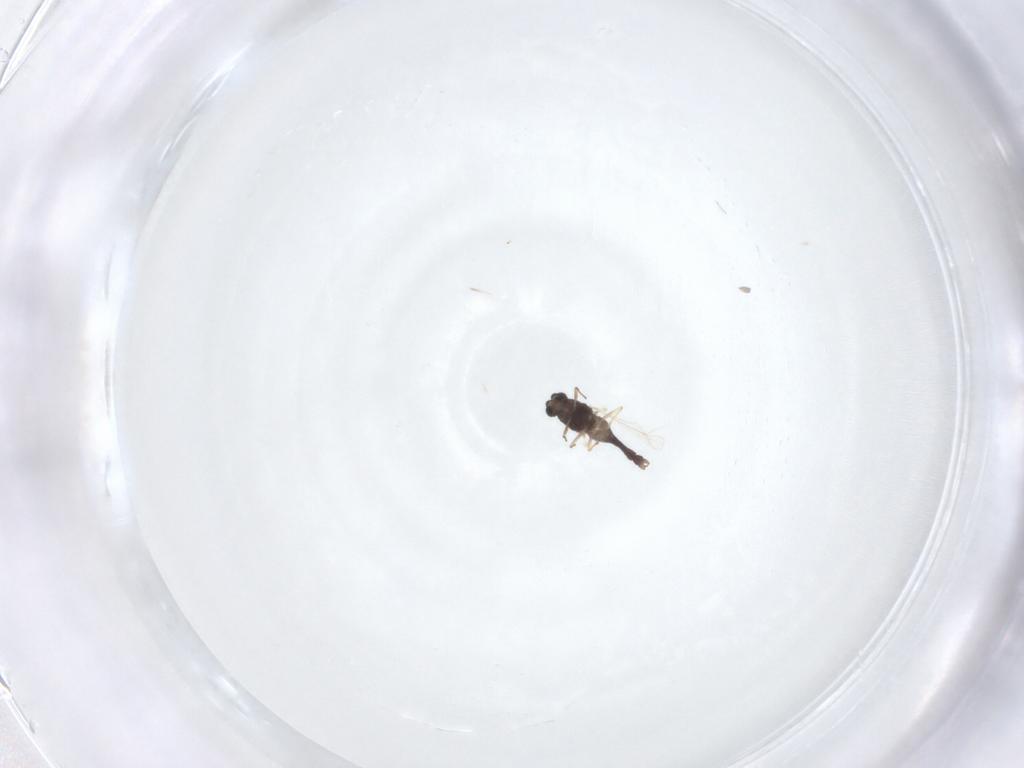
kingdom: Animalia
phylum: Arthropoda
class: Insecta
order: Diptera
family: Chironomidae
